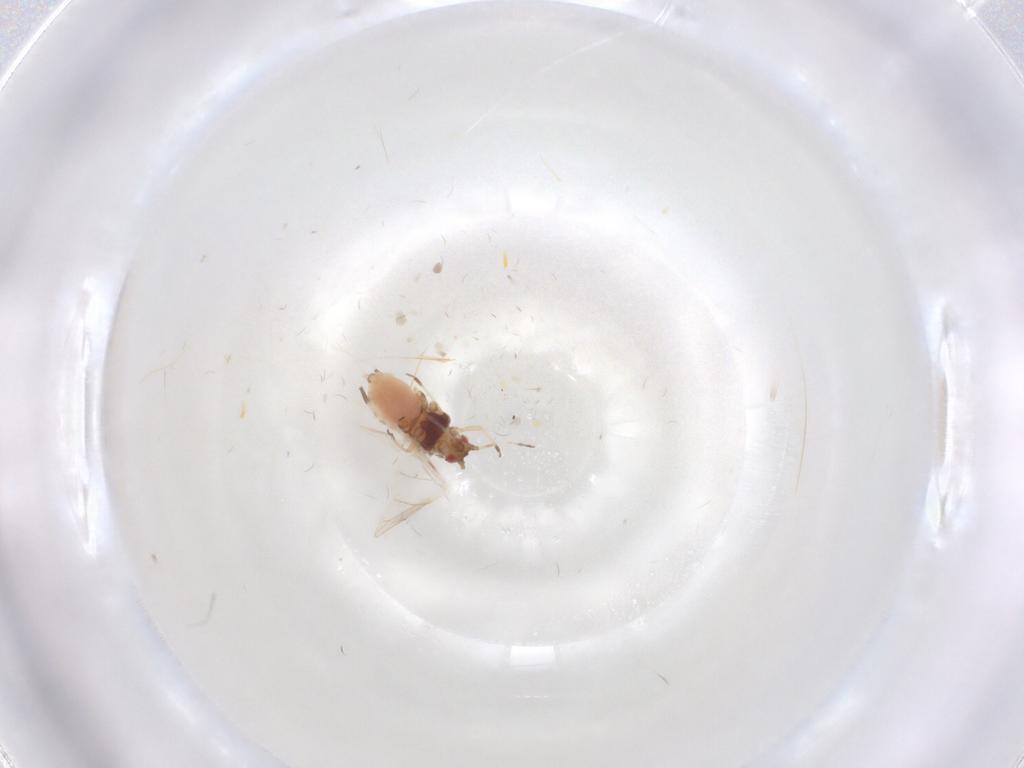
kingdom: Animalia
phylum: Arthropoda
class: Insecta
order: Hemiptera
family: Aphididae
